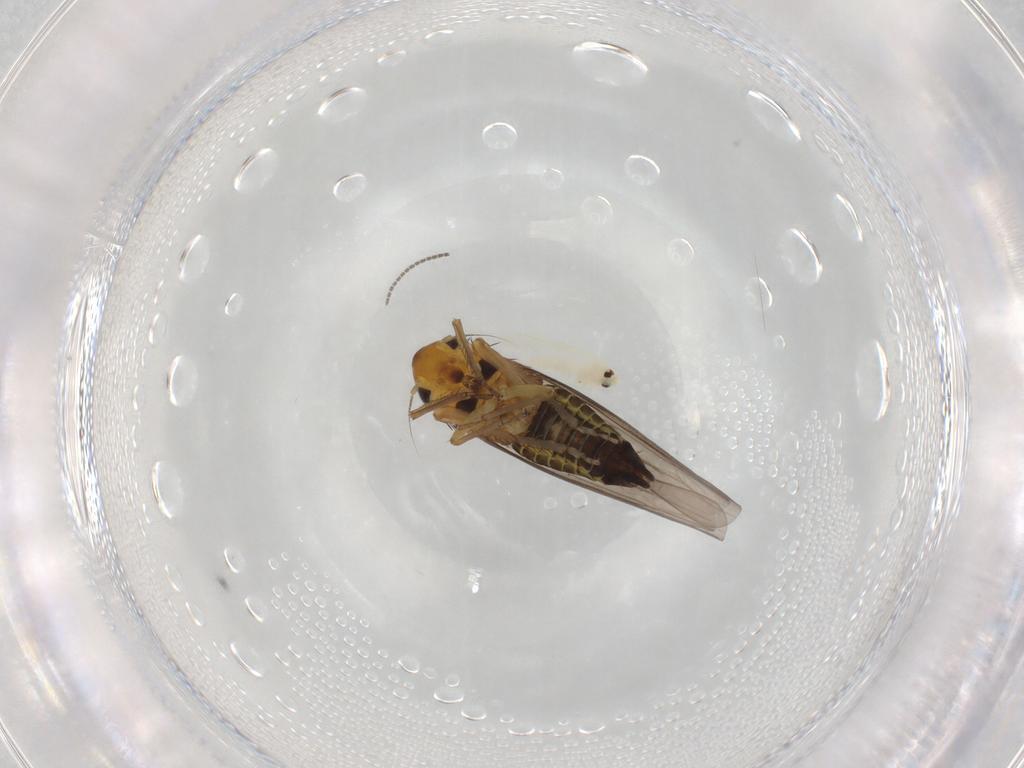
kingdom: Animalia
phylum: Arthropoda
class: Insecta
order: Hemiptera
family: Cicadellidae
